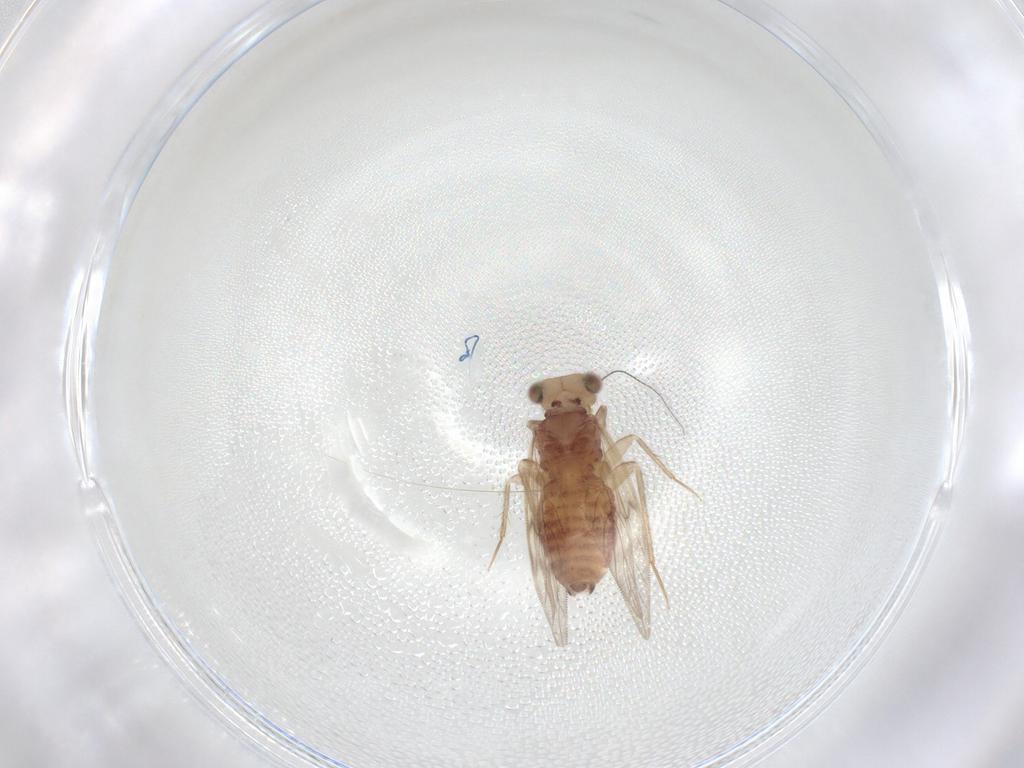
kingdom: Animalia
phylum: Arthropoda
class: Insecta
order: Psocodea
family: Lepidopsocidae
